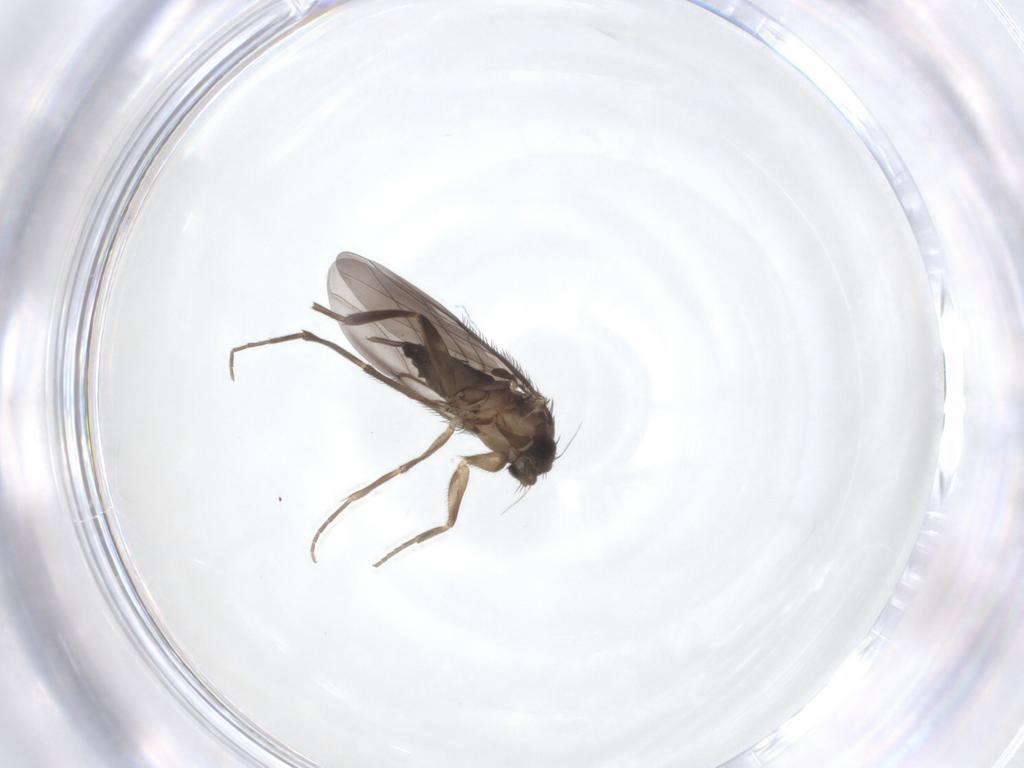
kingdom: Animalia
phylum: Arthropoda
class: Insecta
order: Diptera
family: Phoridae
